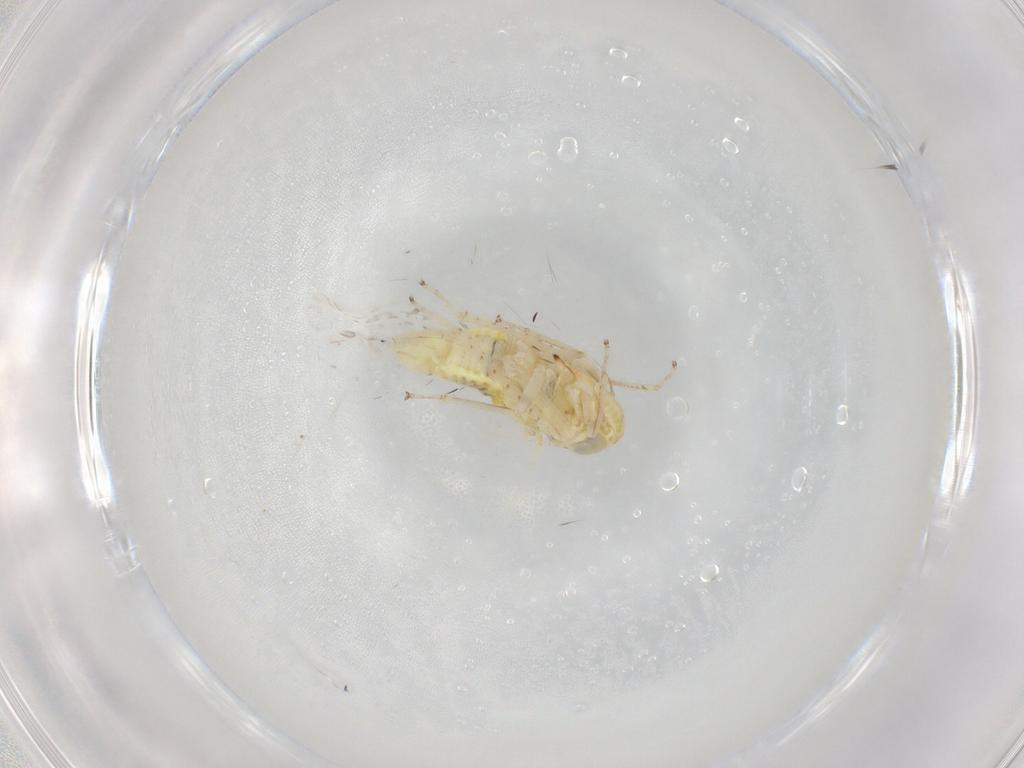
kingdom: Animalia
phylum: Arthropoda
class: Insecta
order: Hemiptera
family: Cicadellidae
